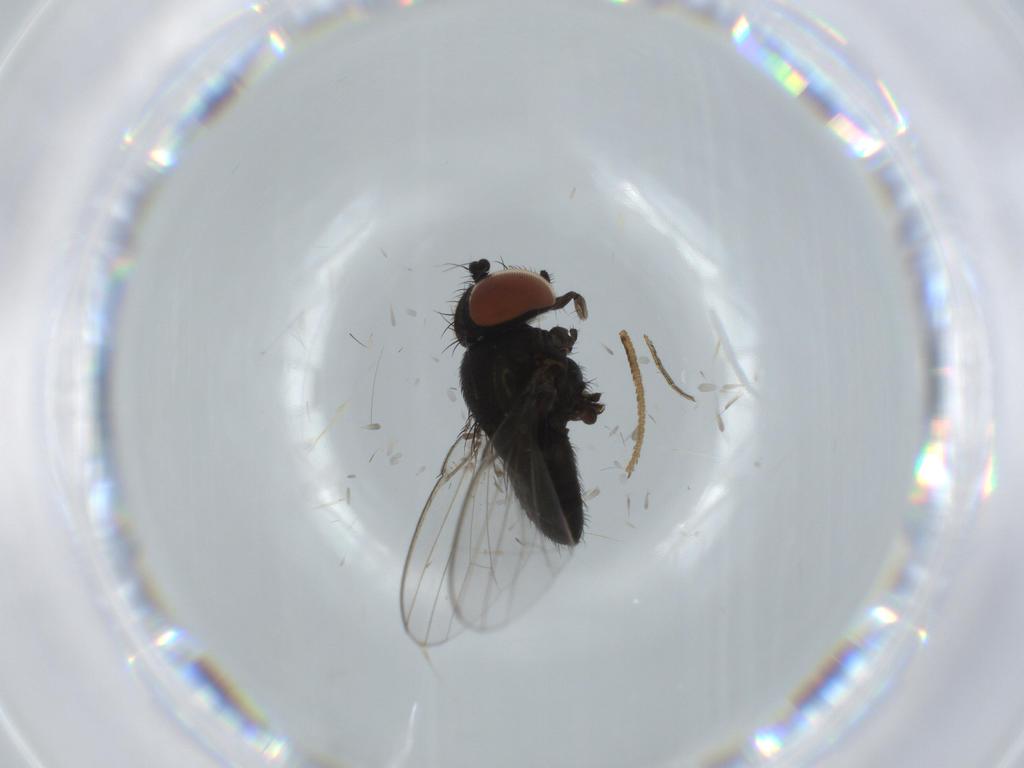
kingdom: Animalia
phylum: Arthropoda
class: Insecta
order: Diptera
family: Milichiidae
